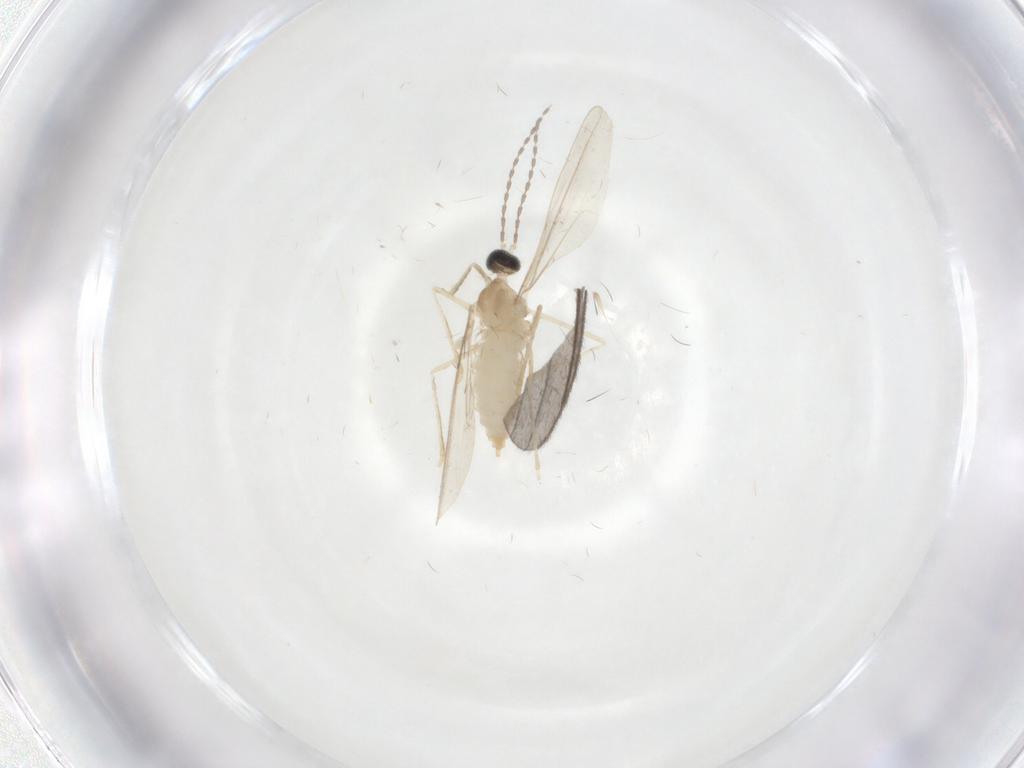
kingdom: Animalia
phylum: Arthropoda
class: Insecta
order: Diptera
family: Cecidomyiidae
